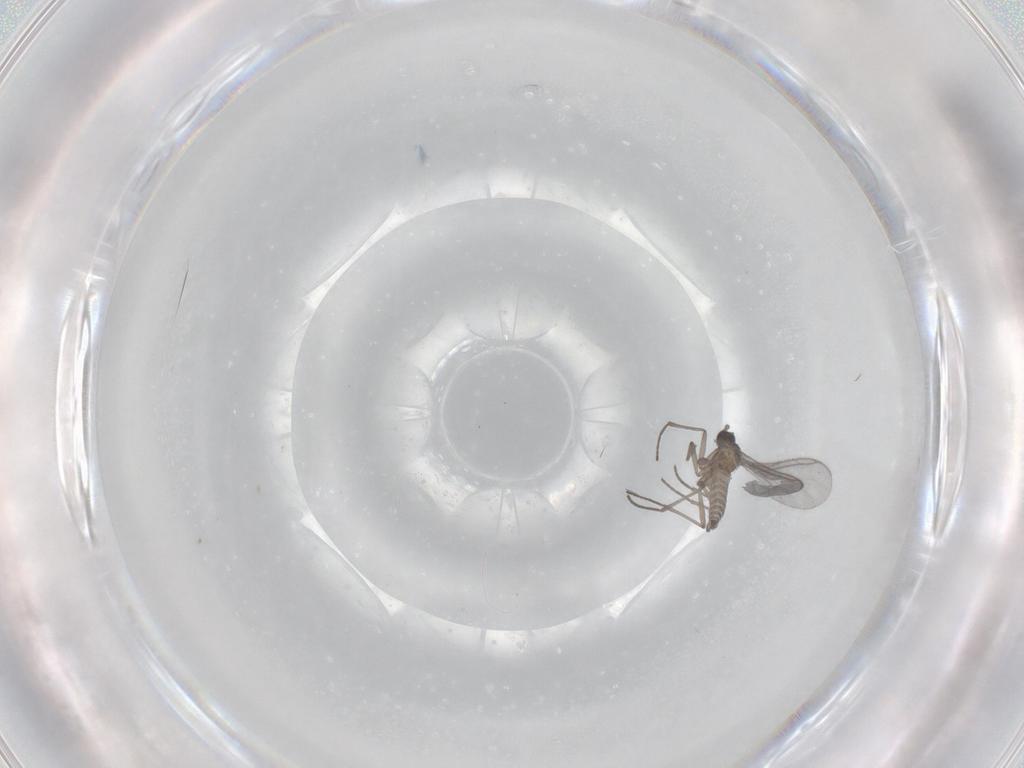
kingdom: Animalia
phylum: Arthropoda
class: Insecta
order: Diptera
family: Sciaridae
